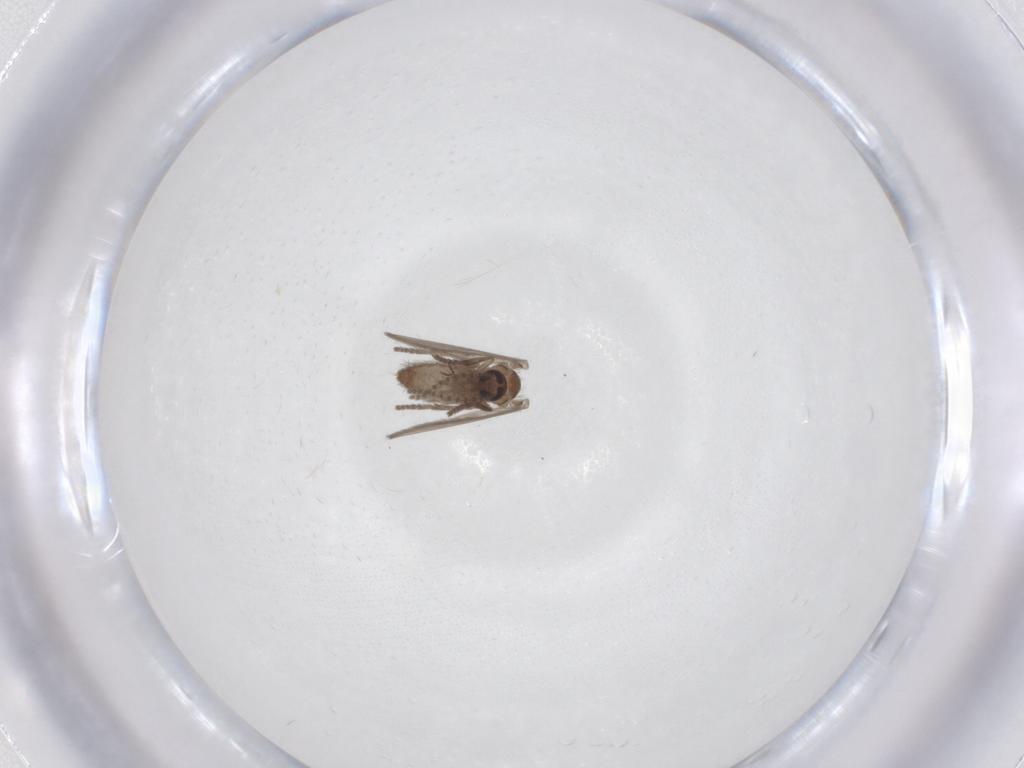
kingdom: Animalia
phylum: Arthropoda
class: Insecta
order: Diptera
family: Psychodidae
